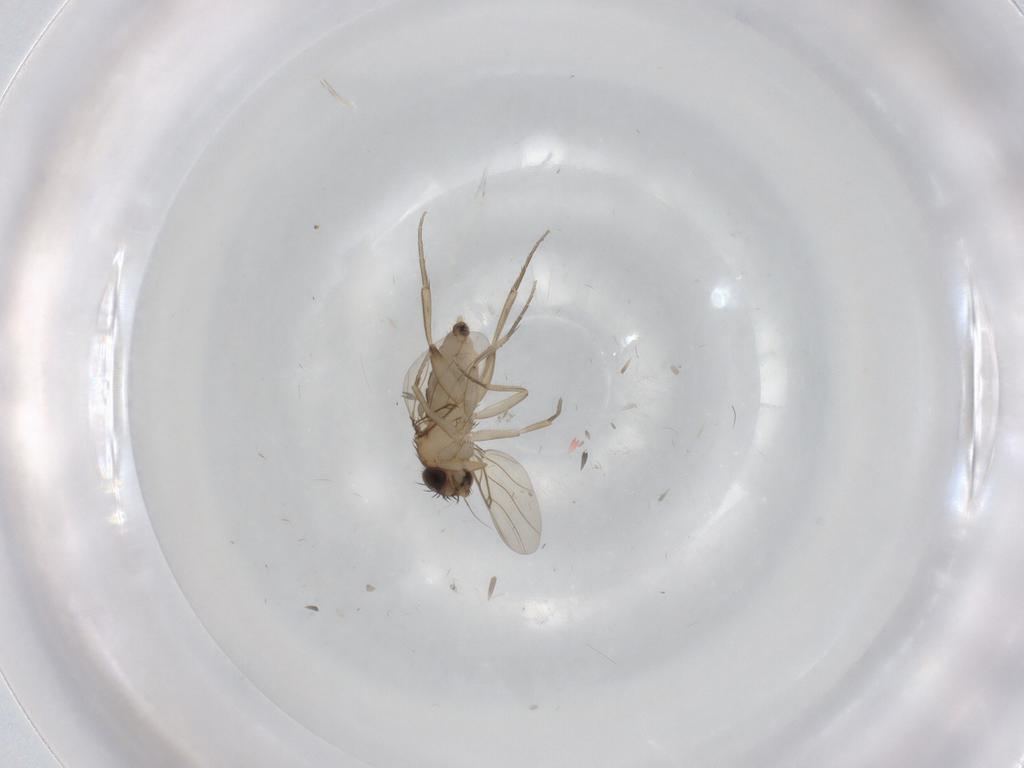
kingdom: Animalia
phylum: Arthropoda
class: Insecta
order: Diptera
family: Phoridae
